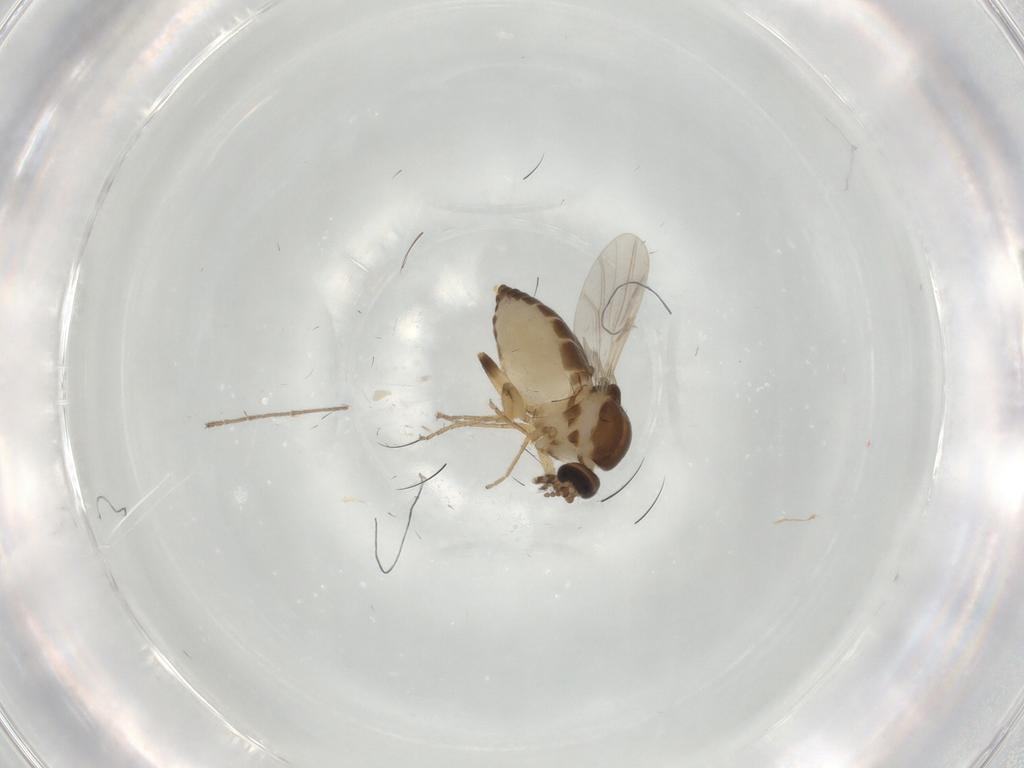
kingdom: Animalia
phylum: Arthropoda
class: Insecta
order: Diptera
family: Ceratopogonidae
